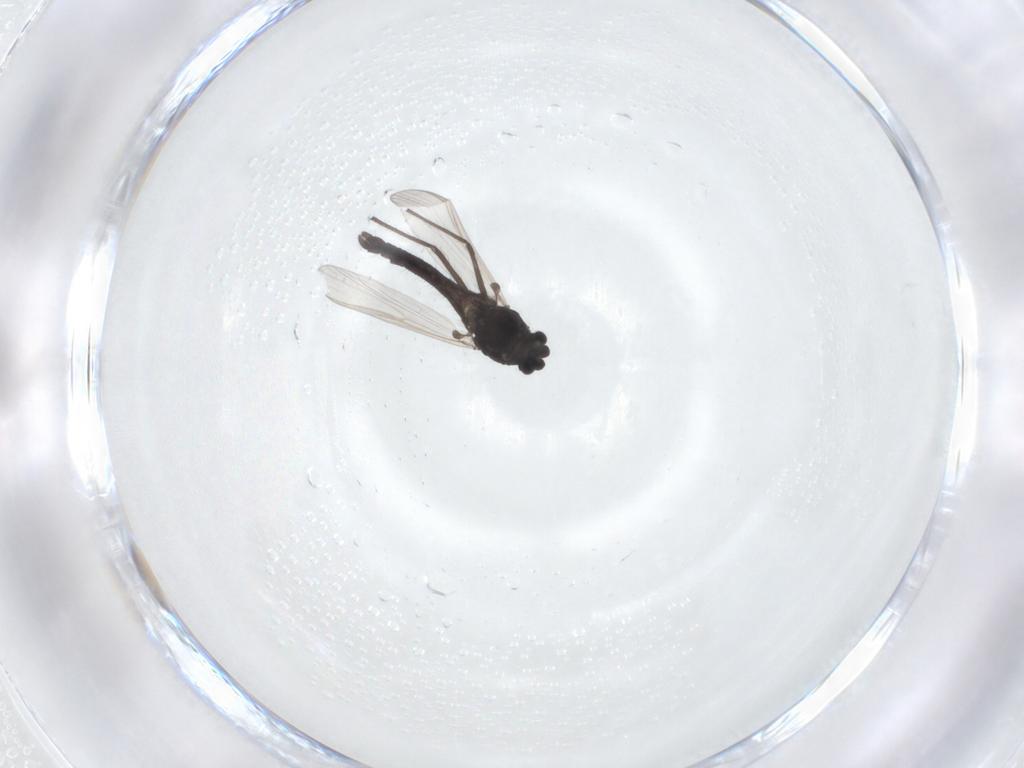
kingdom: Animalia
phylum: Arthropoda
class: Insecta
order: Diptera
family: Chironomidae
